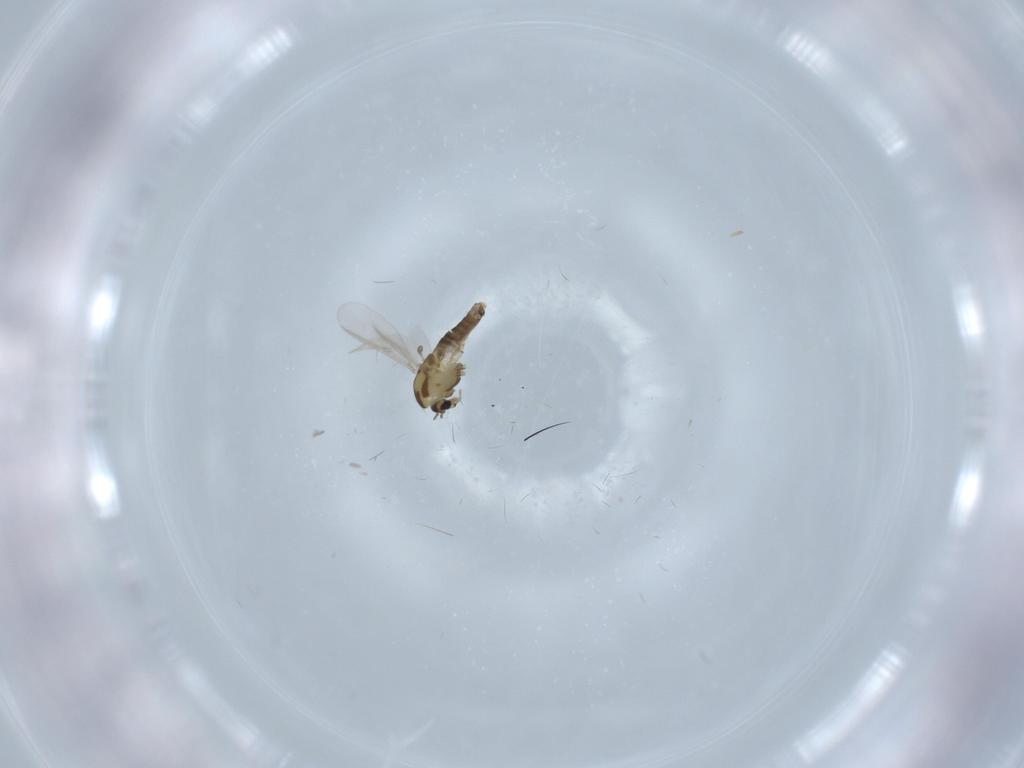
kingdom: Animalia
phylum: Arthropoda
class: Insecta
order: Diptera
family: Chironomidae
